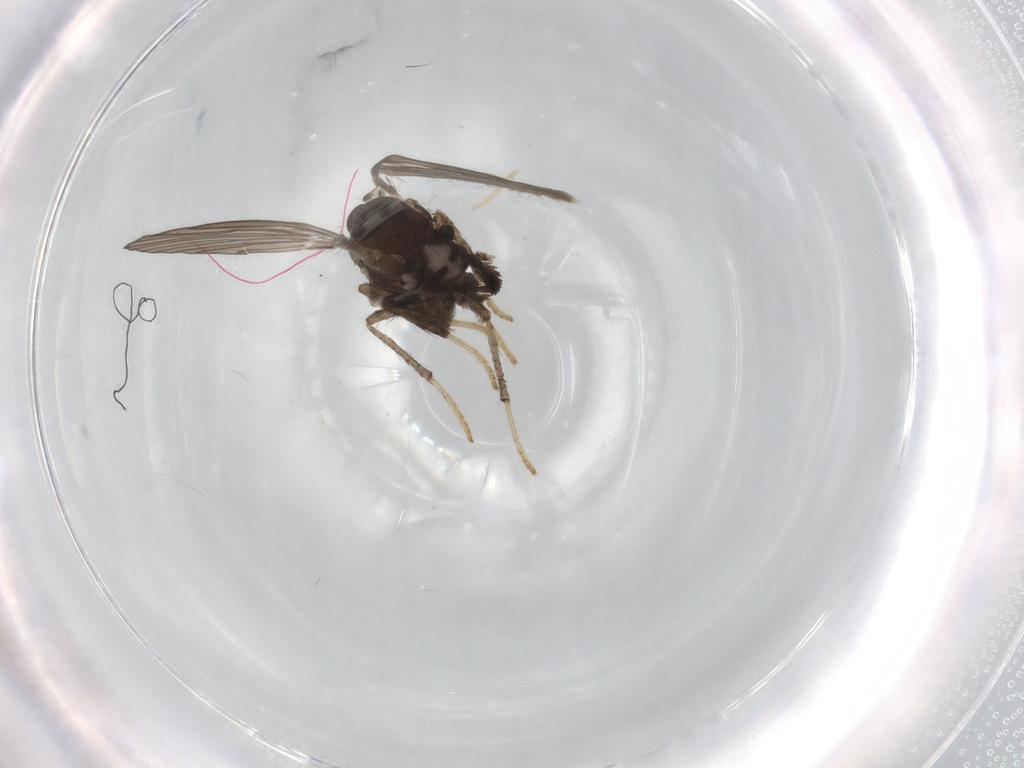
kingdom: Animalia
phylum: Arthropoda
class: Insecta
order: Diptera
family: Psychodidae
